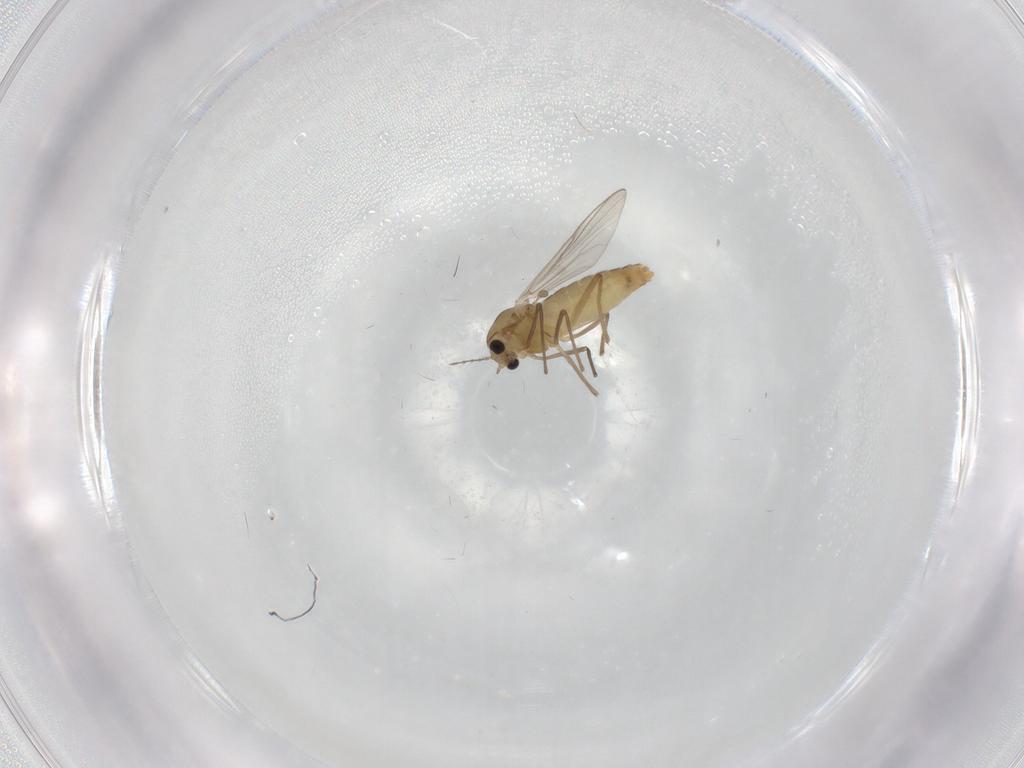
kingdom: Animalia
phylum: Arthropoda
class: Insecta
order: Diptera
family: Chironomidae
